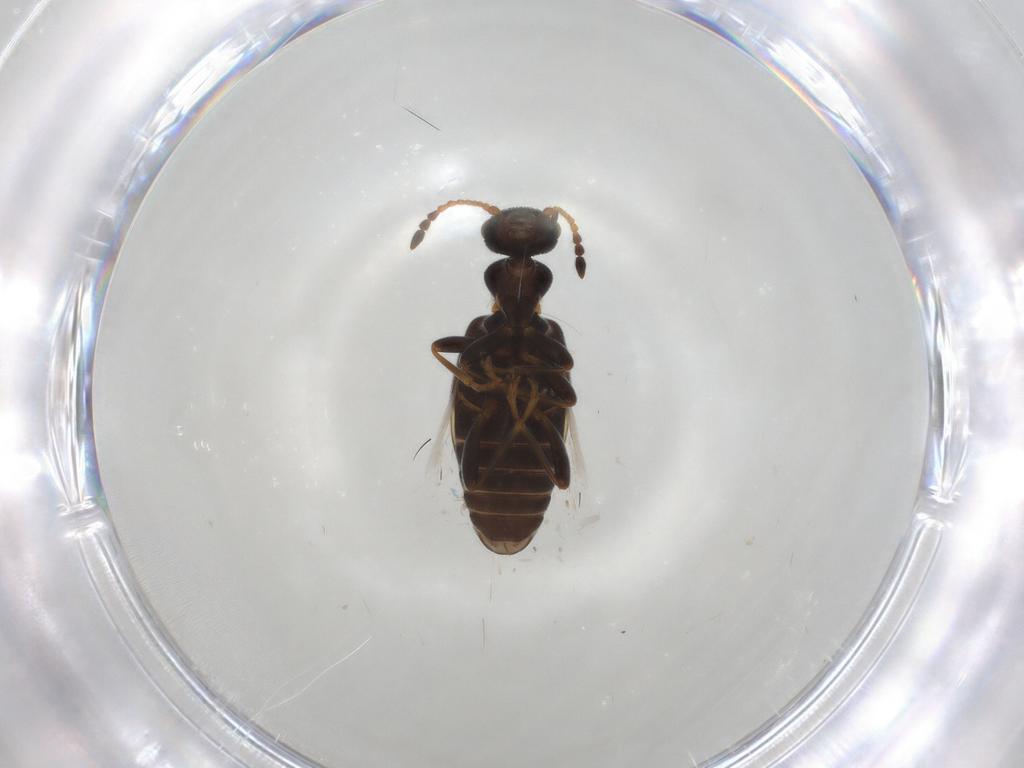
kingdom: Animalia
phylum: Arthropoda
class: Insecta
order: Coleoptera
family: Anthicidae
